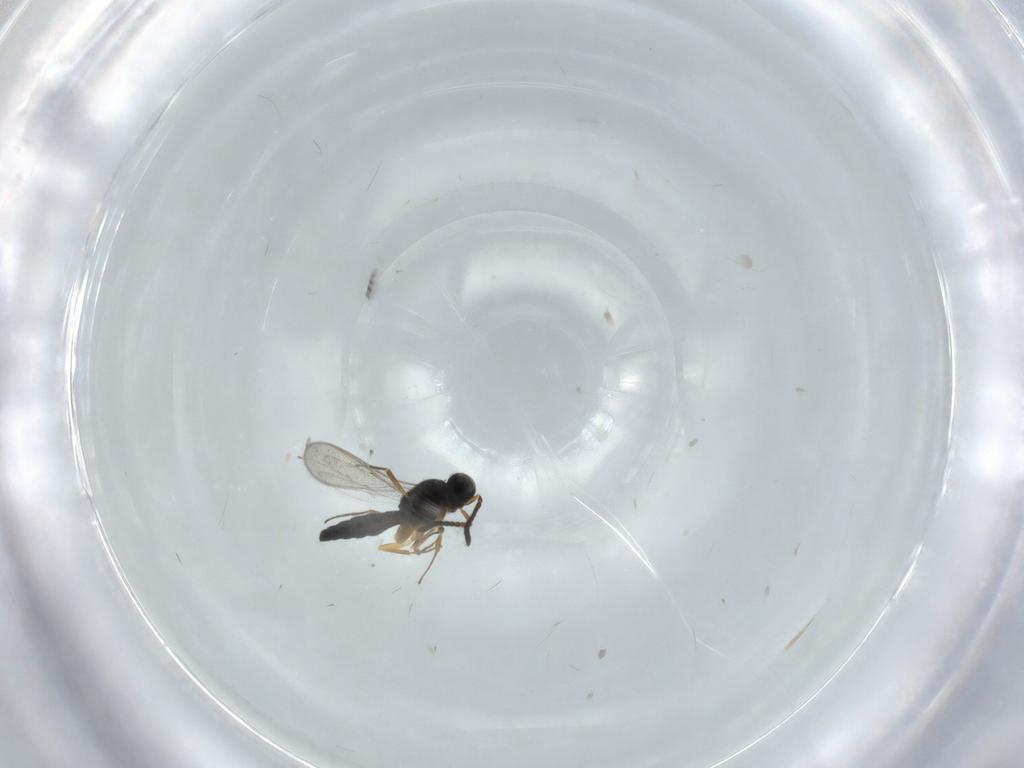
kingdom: Animalia
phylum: Arthropoda
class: Insecta
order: Hymenoptera
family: Scelionidae
